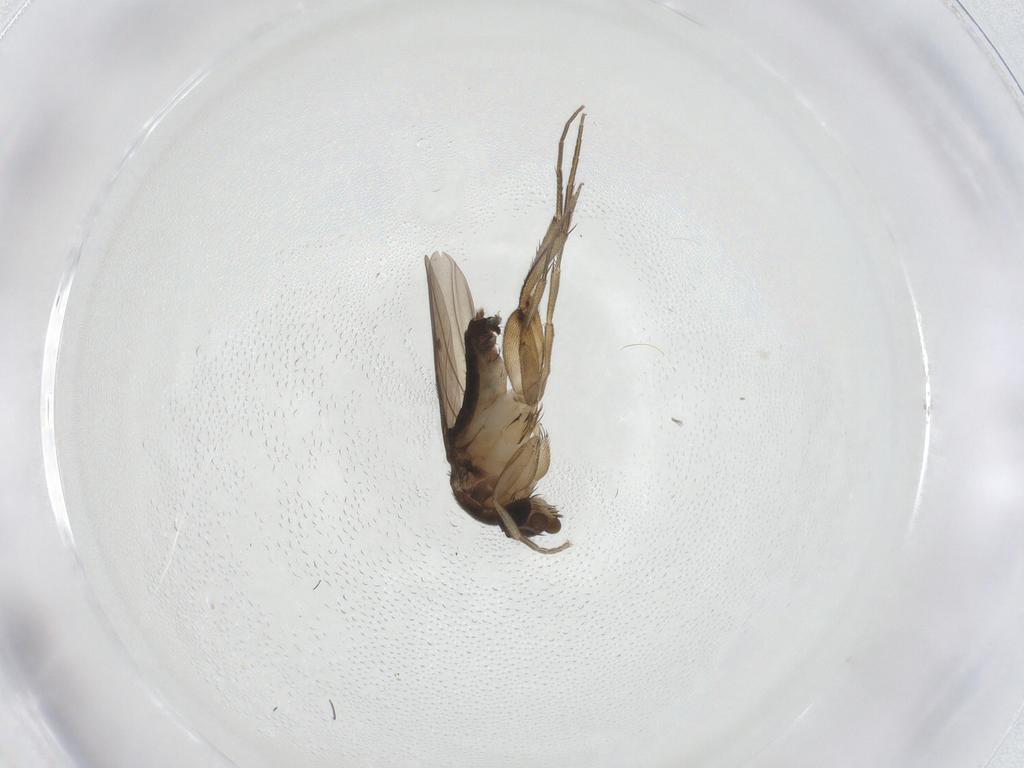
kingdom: Animalia
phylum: Arthropoda
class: Insecta
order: Diptera
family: Phoridae
